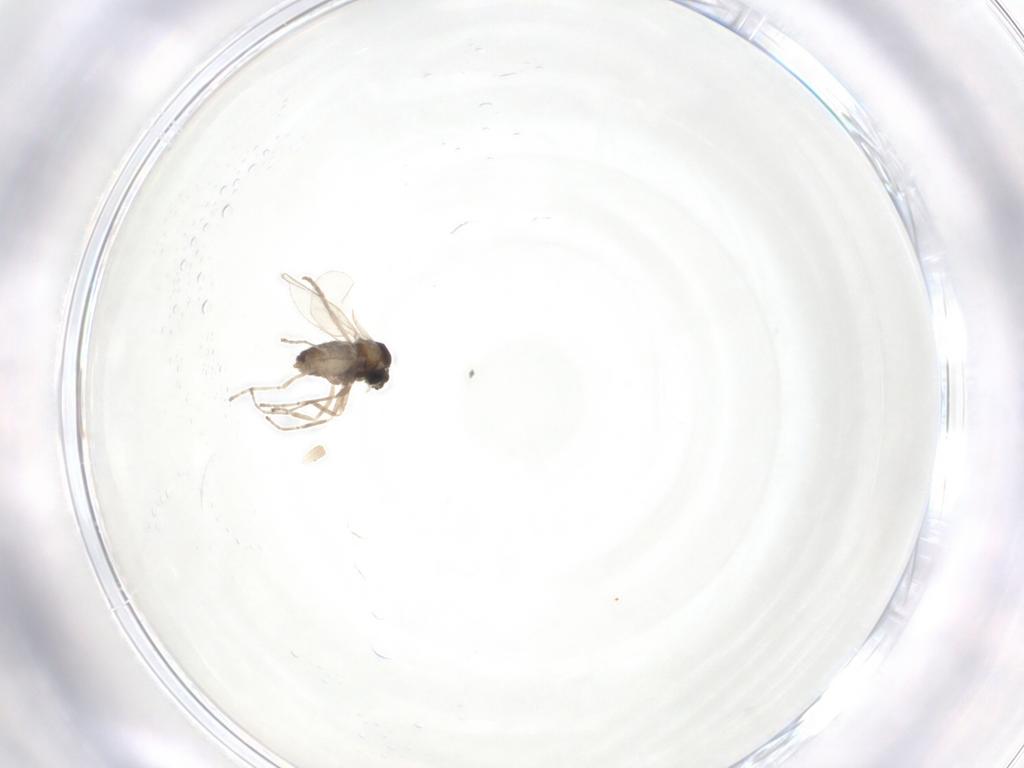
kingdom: Animalia
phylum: Arthropoda
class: Insecta
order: Diptera
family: Cecidomyiidae
